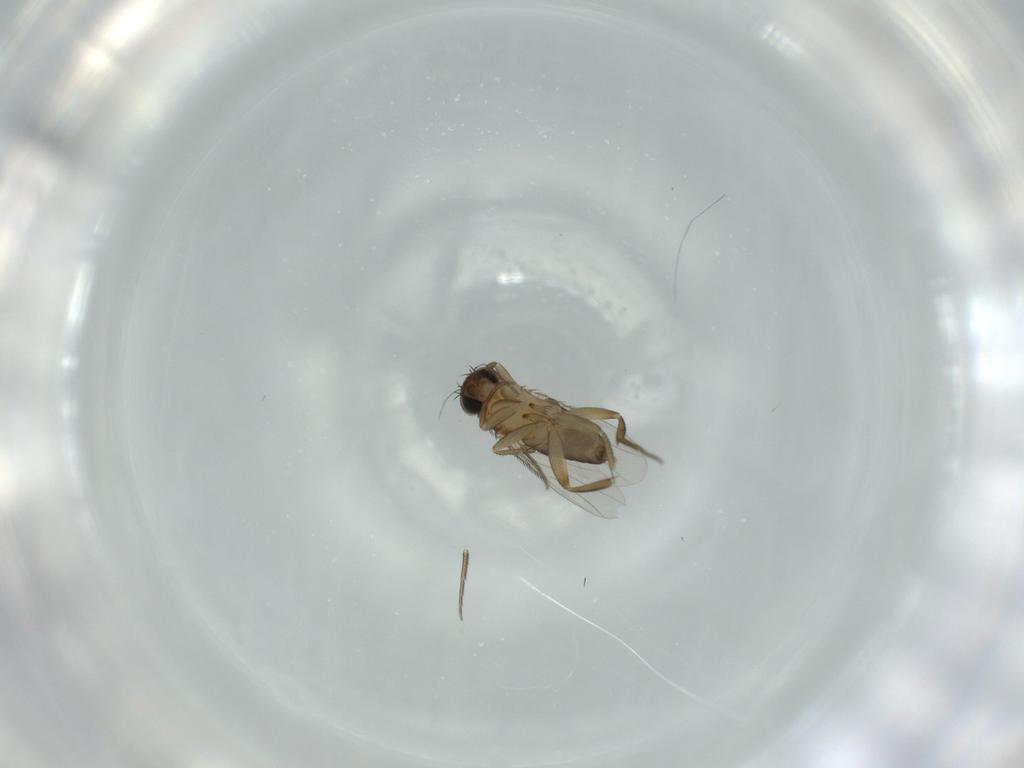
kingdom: Animalia
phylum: Arthropoda
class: Insecta
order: Diptera
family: Phoridae
